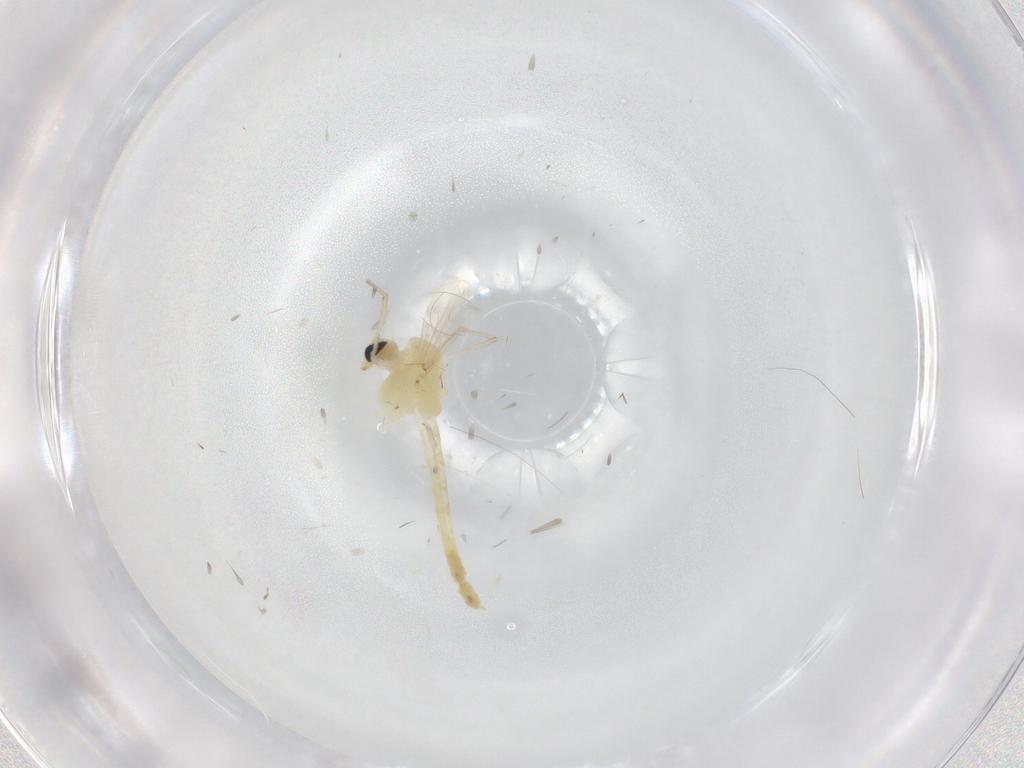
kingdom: Animalia
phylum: Arthropoda
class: Insecta
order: Diptera
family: Chironomidae
